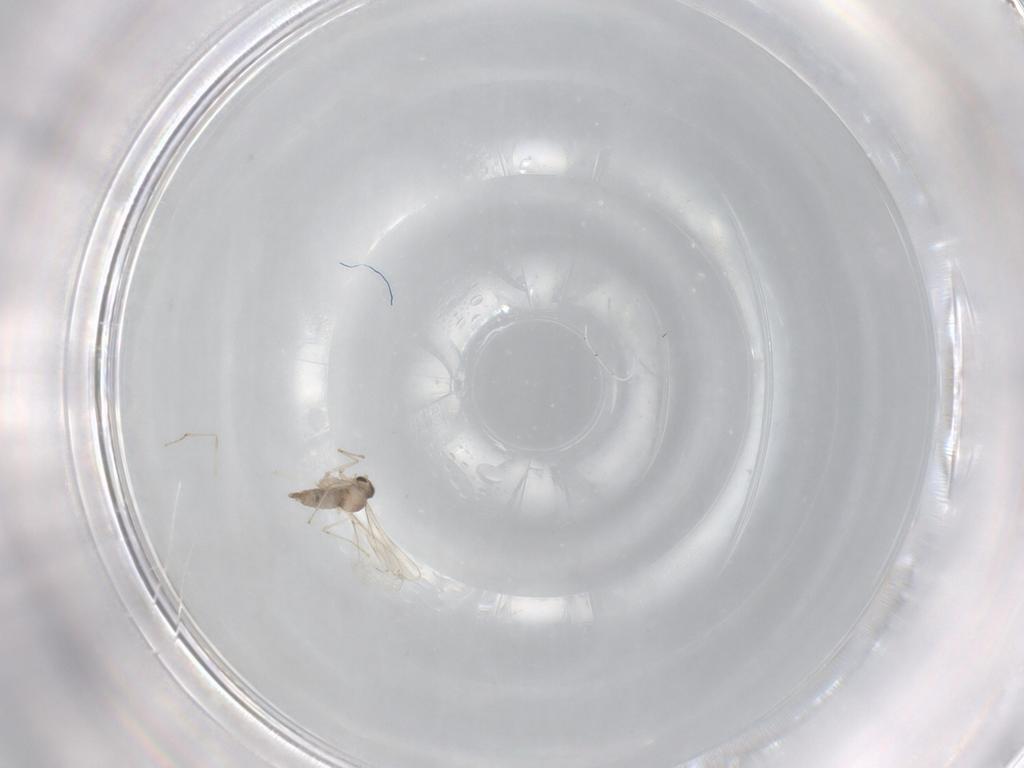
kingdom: Animalia
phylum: Arthropoda
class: Insecta
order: Diptera
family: Cecidomyiidae
